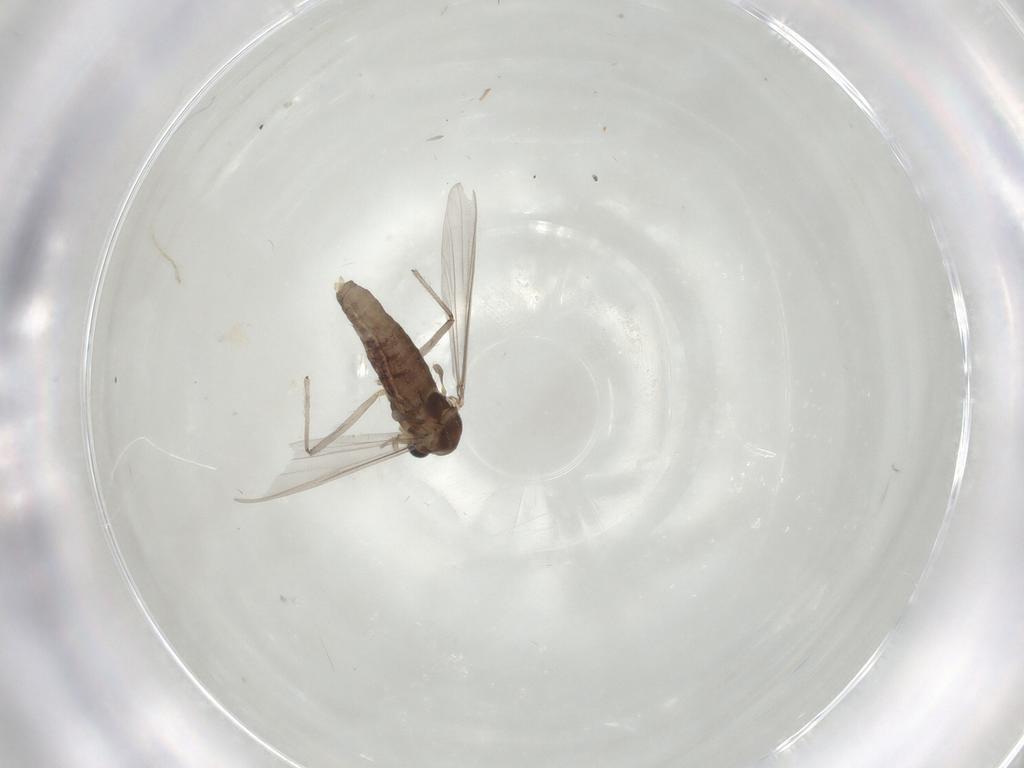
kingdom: Animalia
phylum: Arthropoda
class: Insecta
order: Diptera
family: Chironomidae
